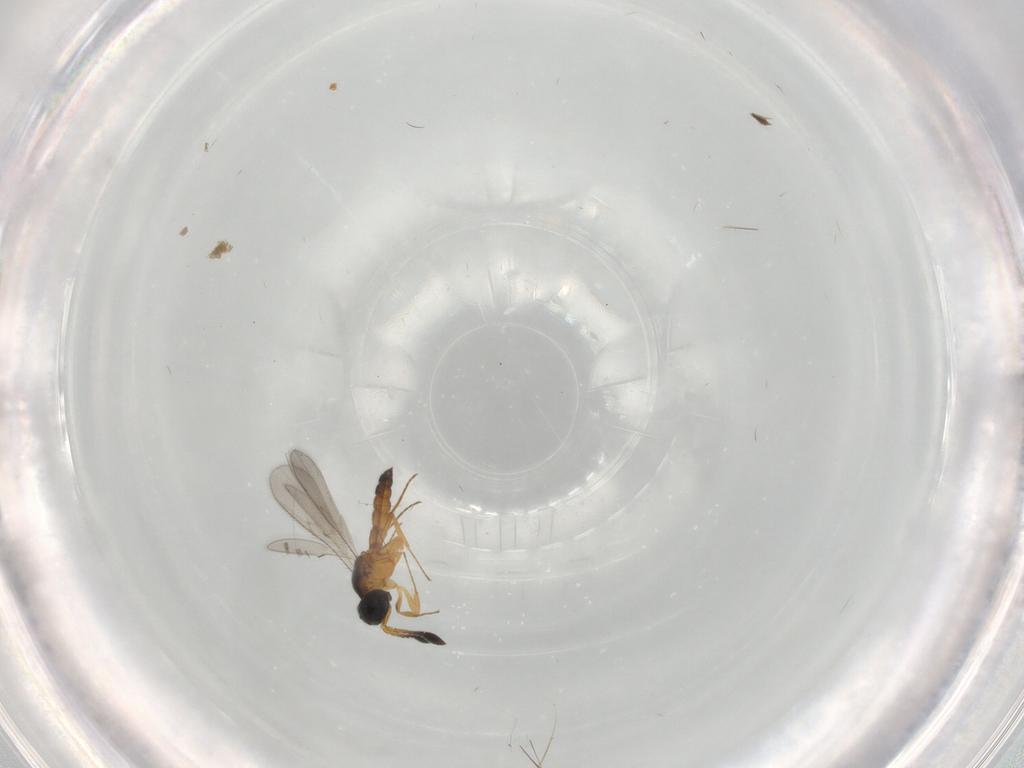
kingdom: Animalia
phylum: Arthropoda
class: Insecta
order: Hymenoptera
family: Scelionidae
